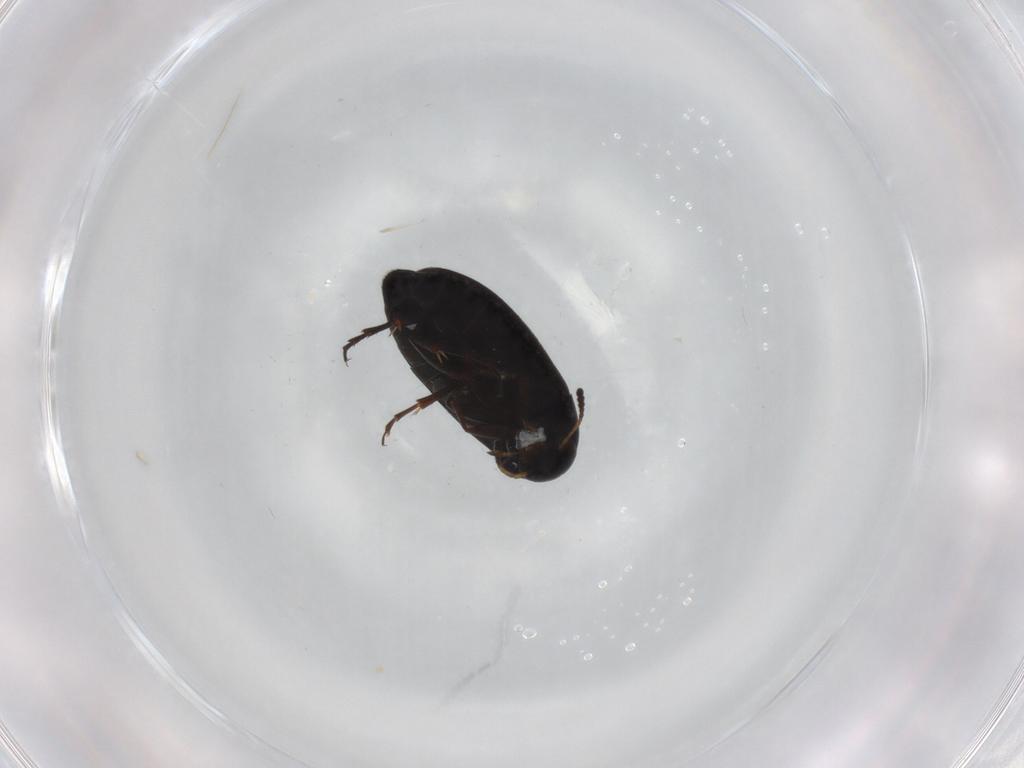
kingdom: Animalia
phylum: Arthropoda
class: Insecta
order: Coleoptera
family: Scraptiidae
